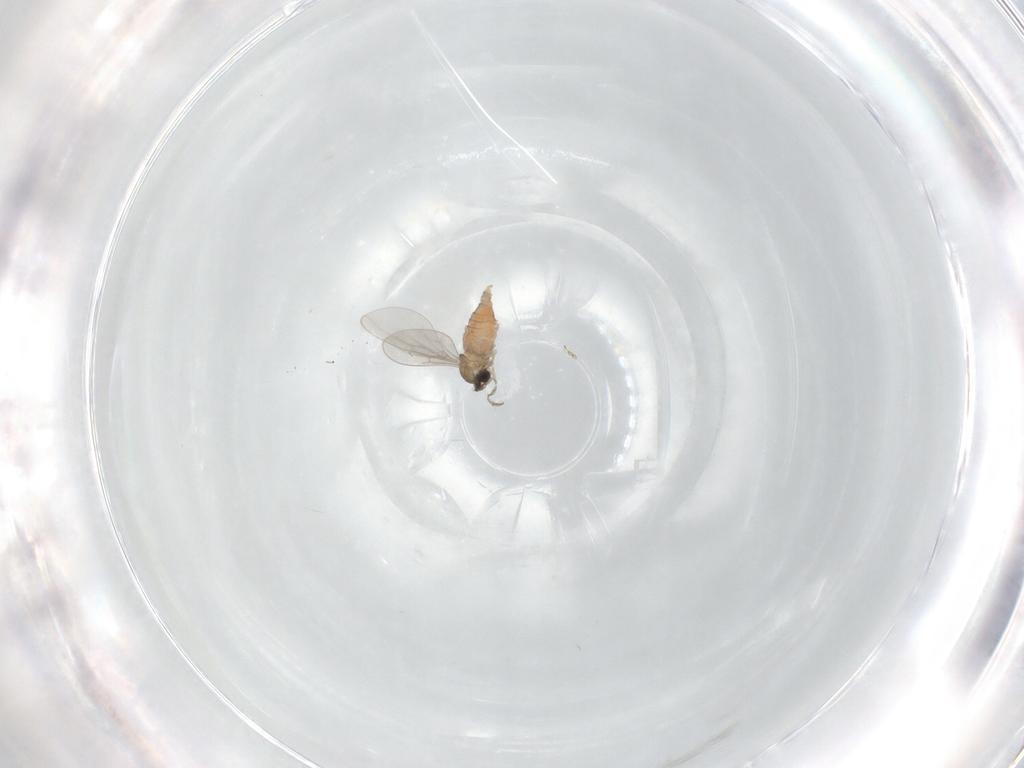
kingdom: Animalia
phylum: Arthropoda
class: Insecta
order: Diptera
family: Cecidomyiidae
